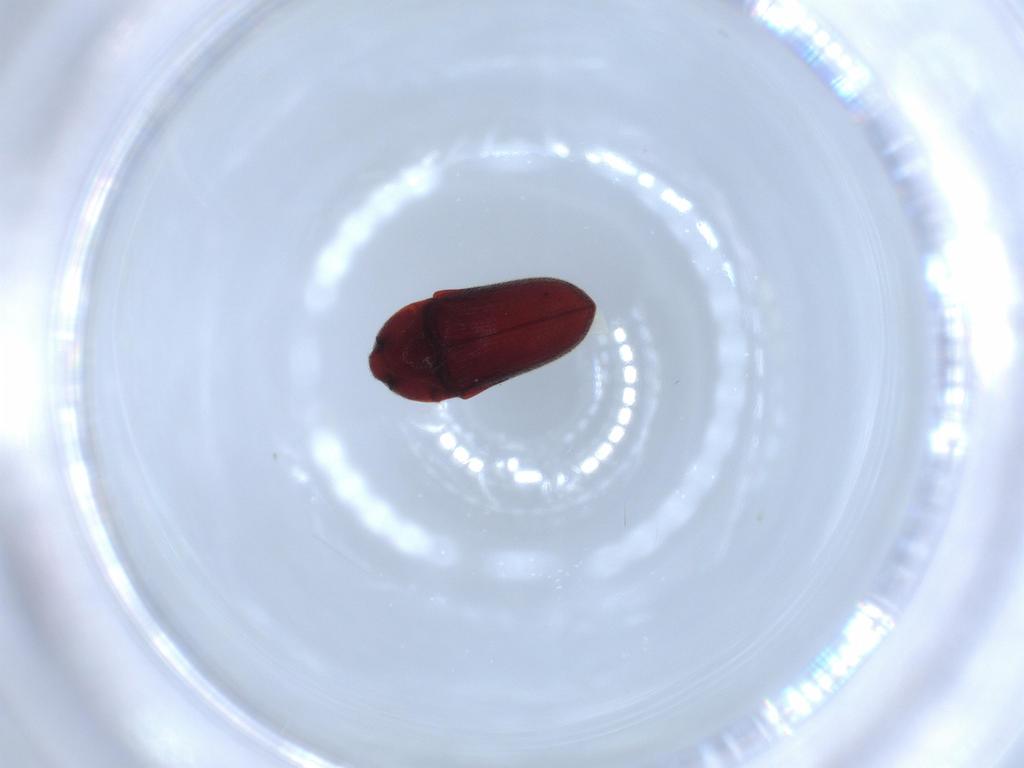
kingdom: Animalia
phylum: Arthropoda
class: Insecta
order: Coleoptera
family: Throscidae
